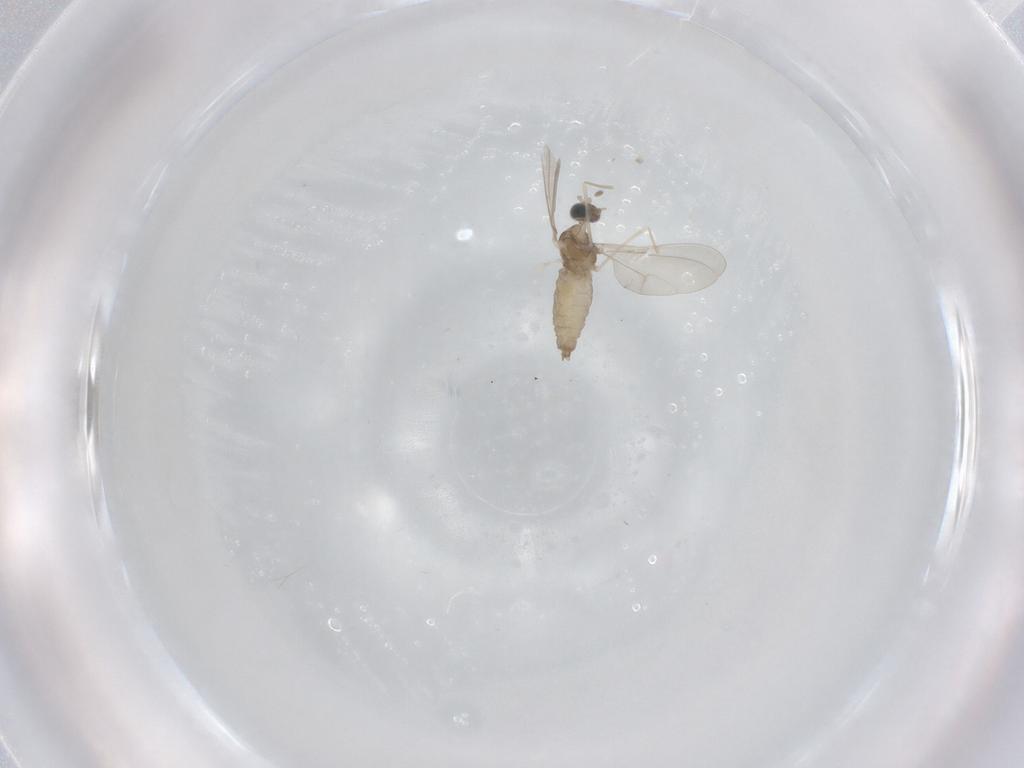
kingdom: Animalia
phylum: Arthropoda
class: Insecta
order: Diptera
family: Cecidomyiidae
